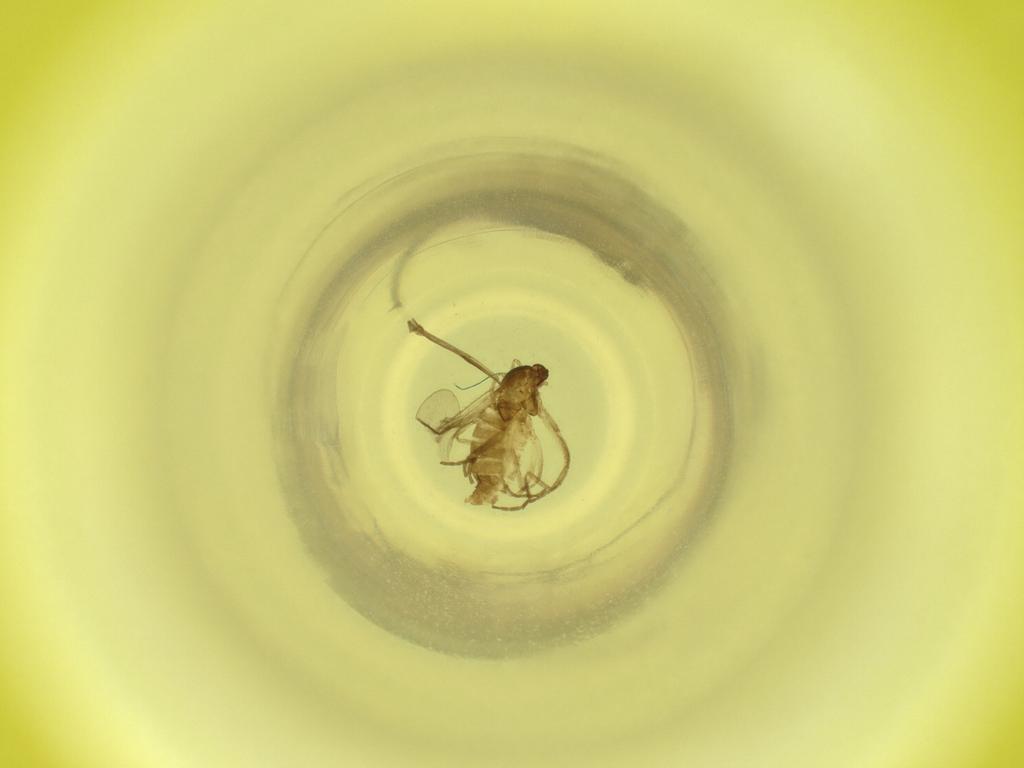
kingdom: Animalia
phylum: Arthropoda
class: Insecta
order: Diptera
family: Cecidomyiidae
